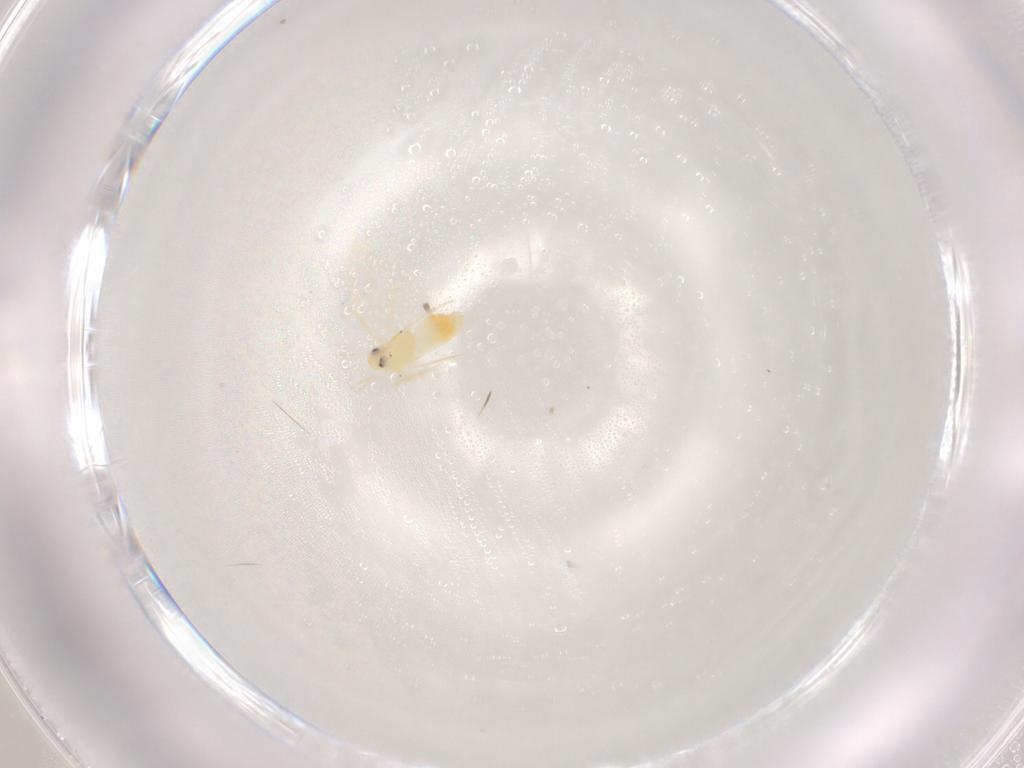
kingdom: Animalia
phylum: Arthropoda
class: Insecta
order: Hemiptera
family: Aleyrodidae
